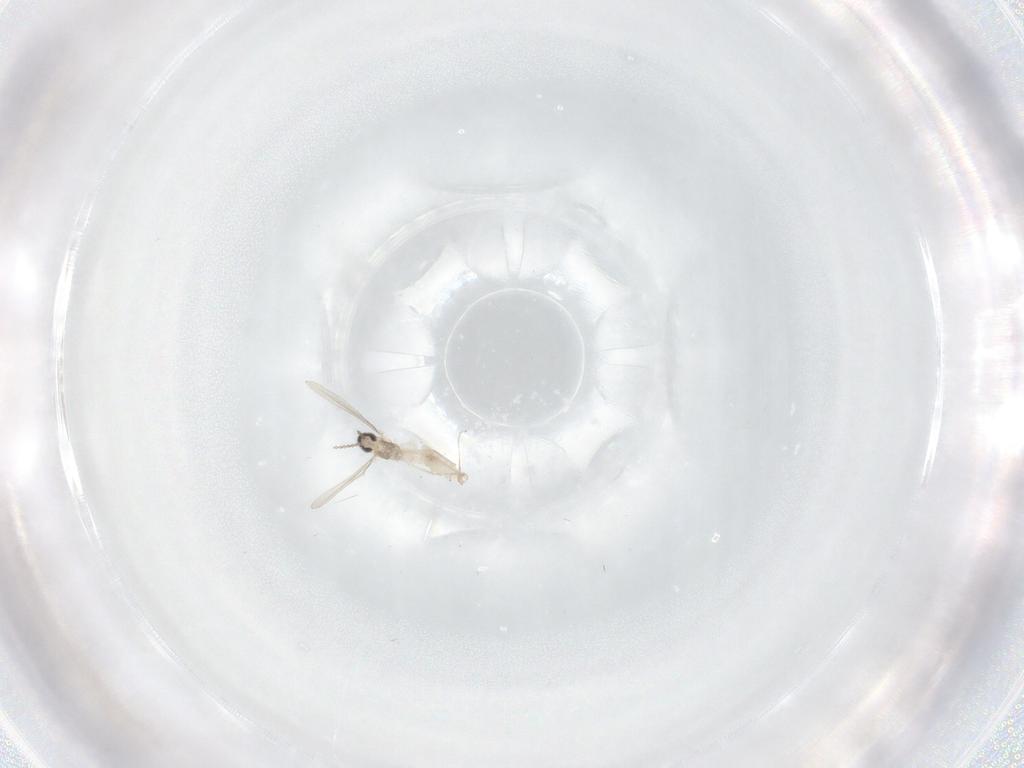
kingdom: Animalia
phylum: Arthropoda
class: Insecta
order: Diptera
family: Cecidomyiidae
